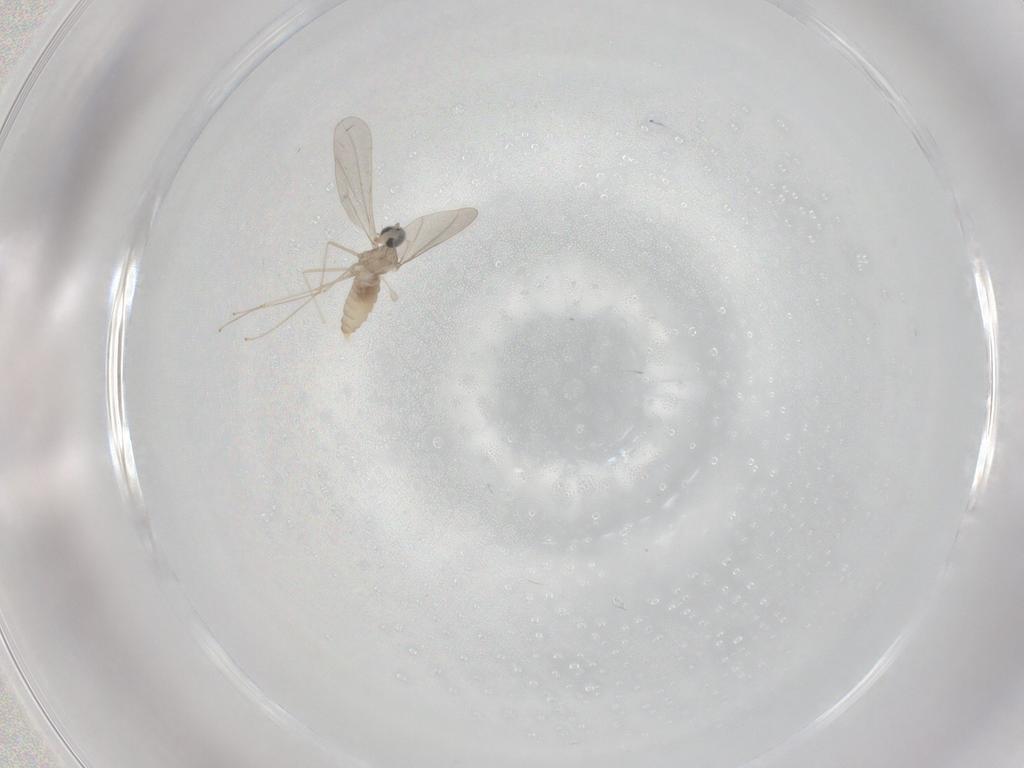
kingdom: Animalia
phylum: Arthropoda
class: Insecta
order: Diptera
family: Cecidomyiidae
